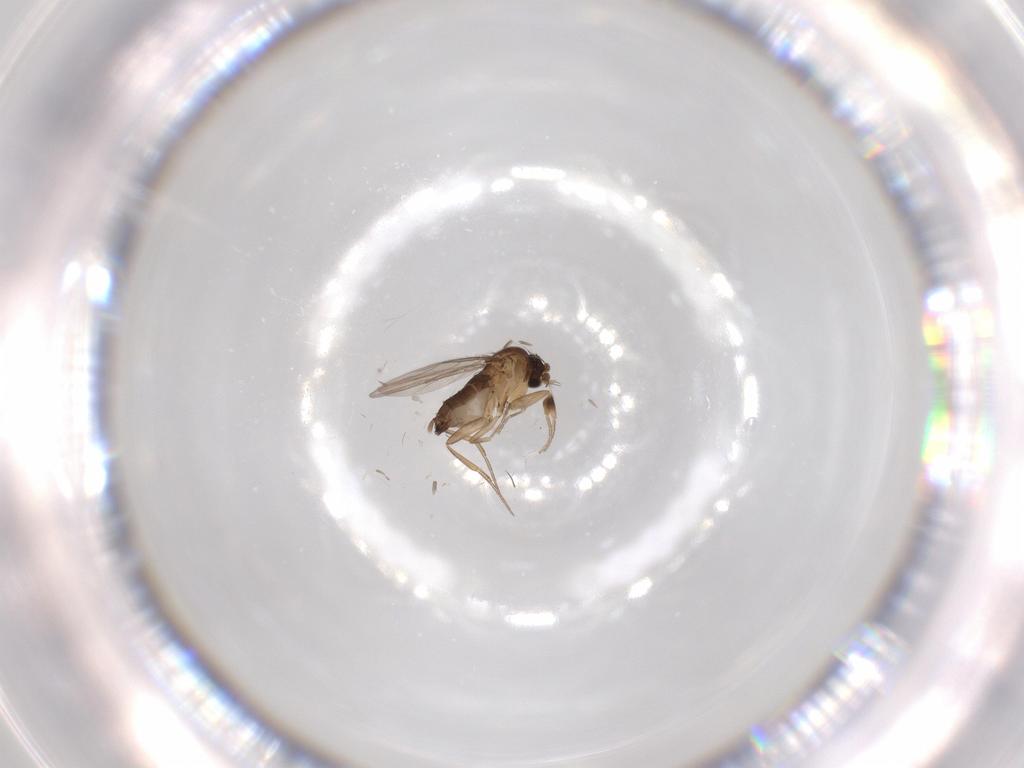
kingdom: Animalia
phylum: Arthropoda
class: Insecta
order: Diptera
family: Phoridae
